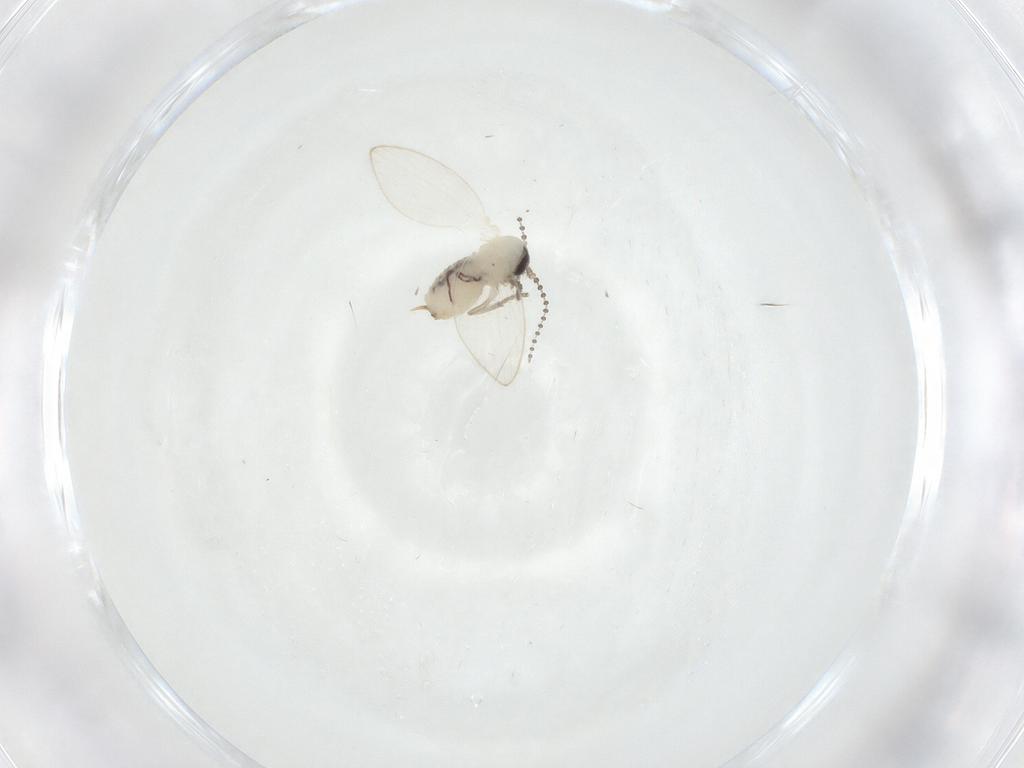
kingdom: Animalia
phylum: Arthropoda
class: Insecta
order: Diptera
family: Psychodidae
